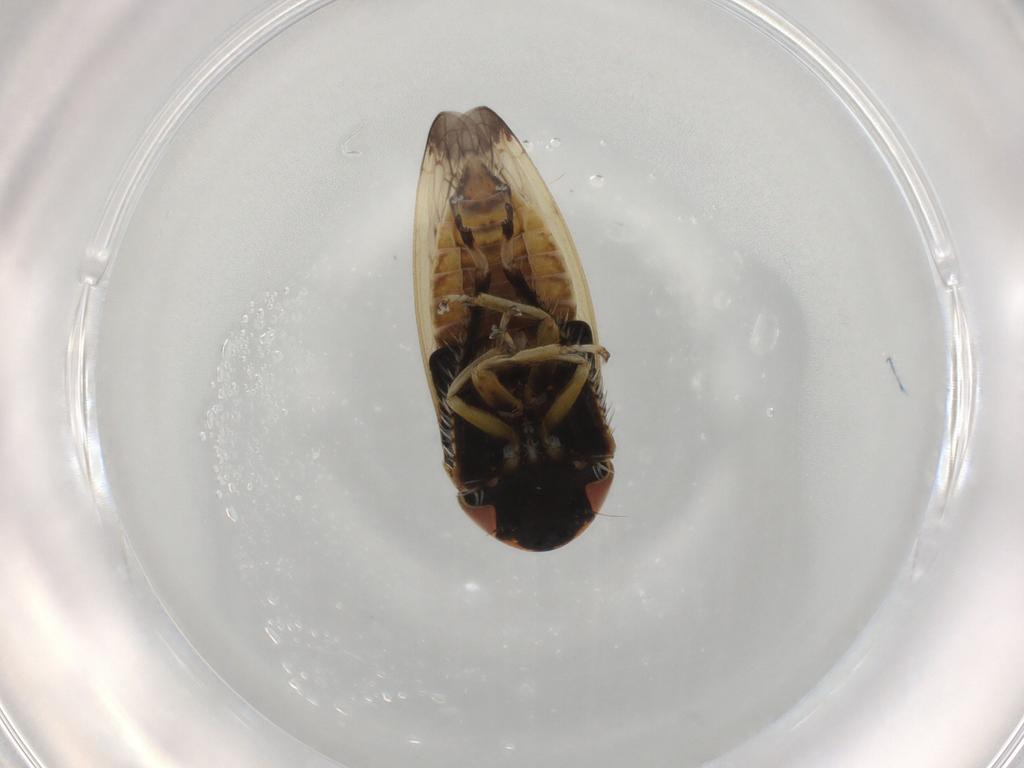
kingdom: Animalia
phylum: Arthropoda
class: Insecta
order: Hemiptera
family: Cicadellidae
